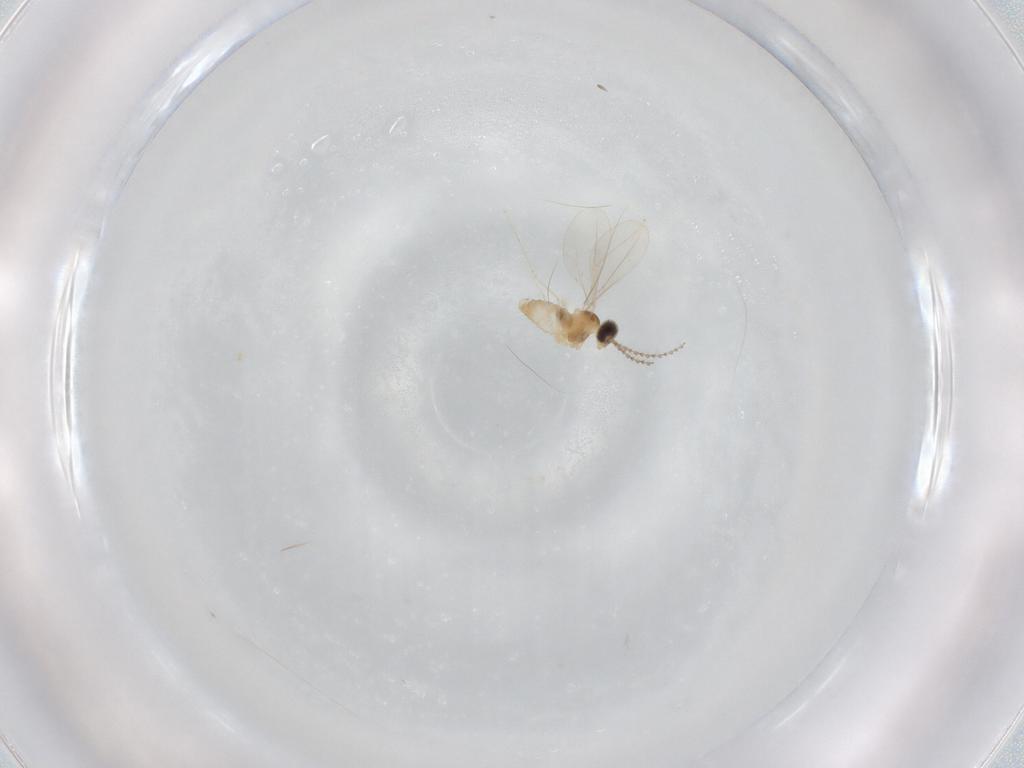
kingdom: Animalia
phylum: Arthropoda
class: Insecta
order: Diptera
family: Cecidomyiidae
